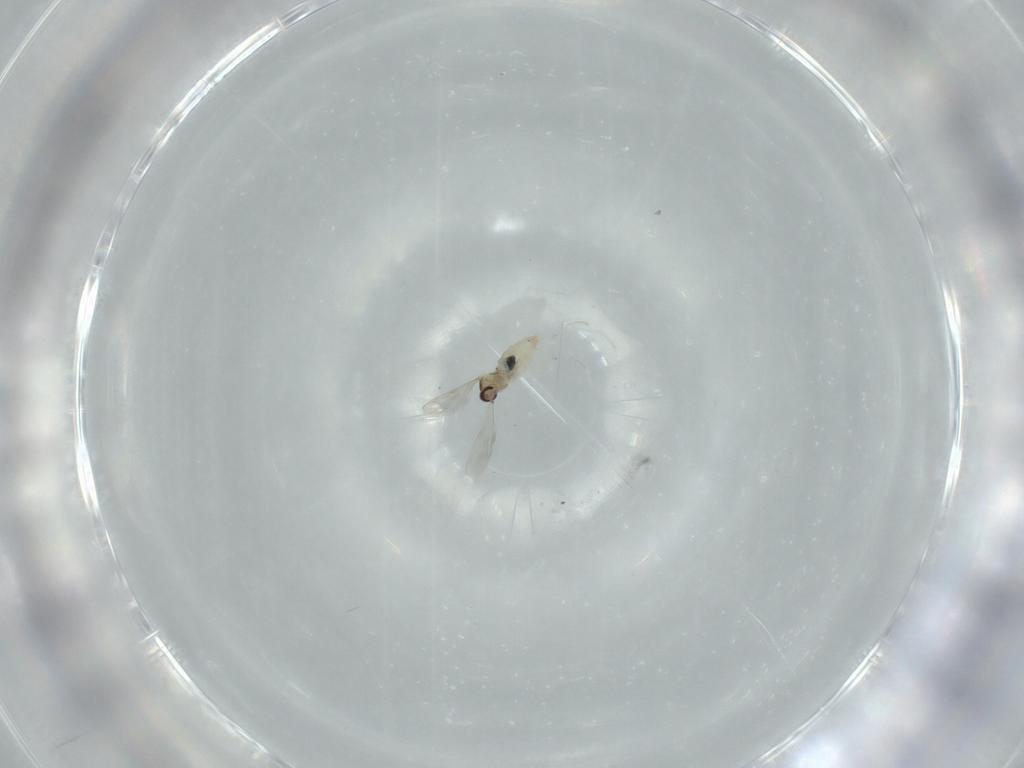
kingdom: Animalia
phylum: Arthropoda
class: Insecta
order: Diptera
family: Cecidomyiidae
